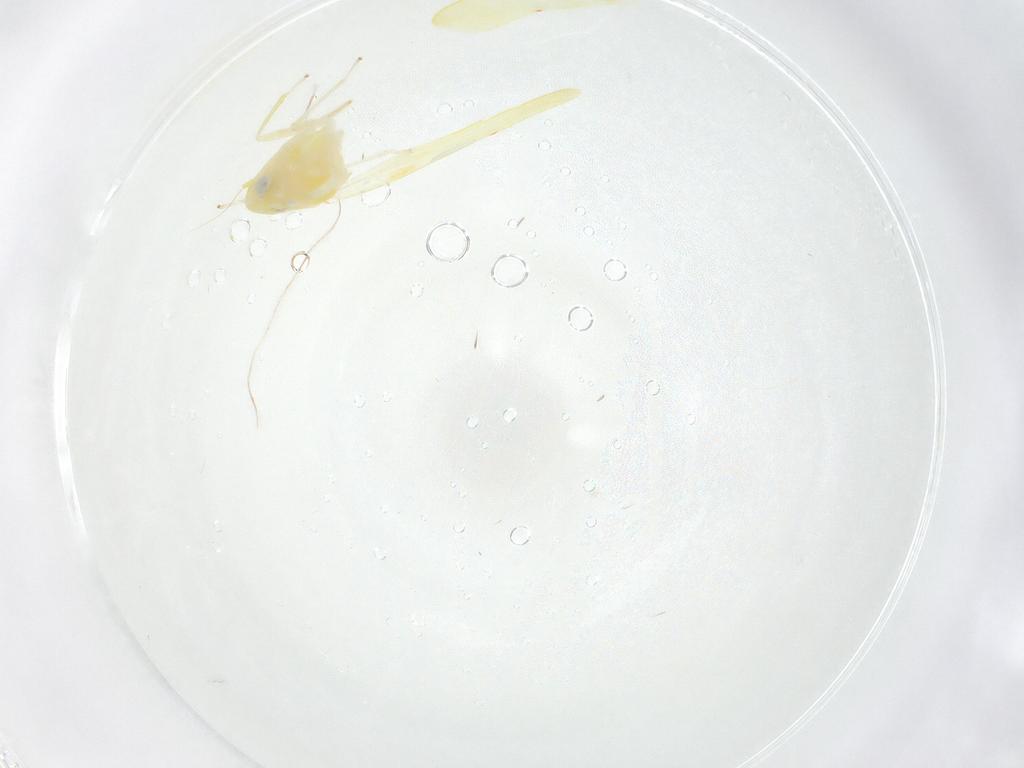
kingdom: Animalia
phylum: Arthropoda
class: Insecta
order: Hemiptera
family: Cicadellidae
